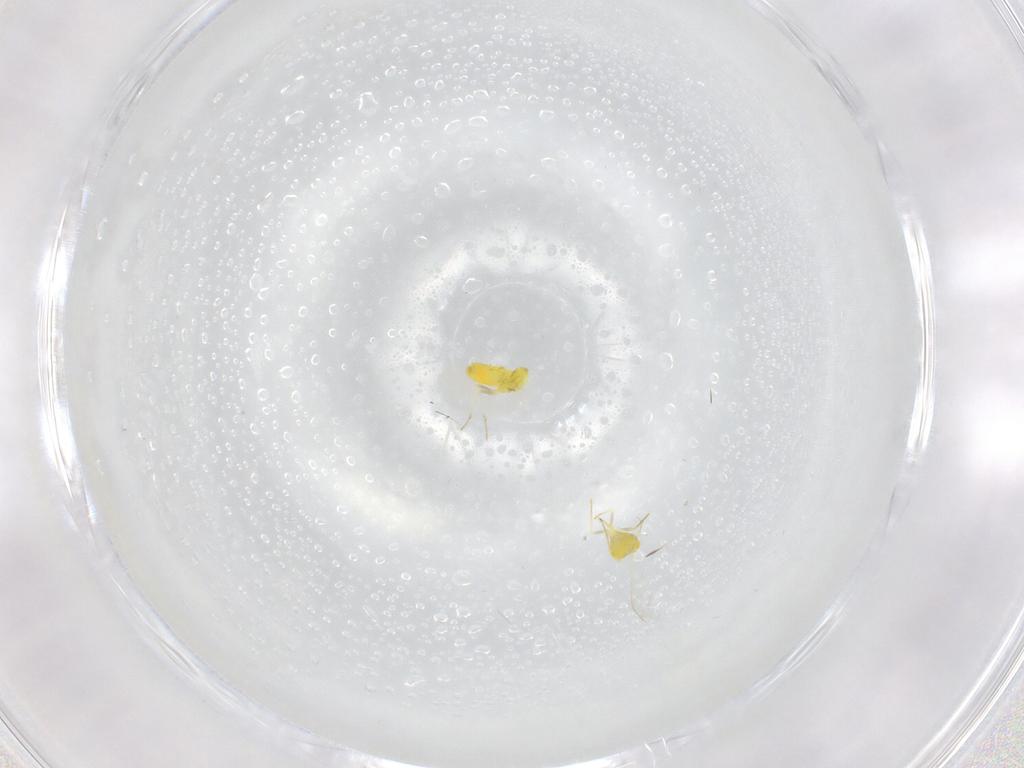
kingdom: Animalia
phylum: Arthropoda
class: Insecta
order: Hemiptera
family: Aleyrodidae
